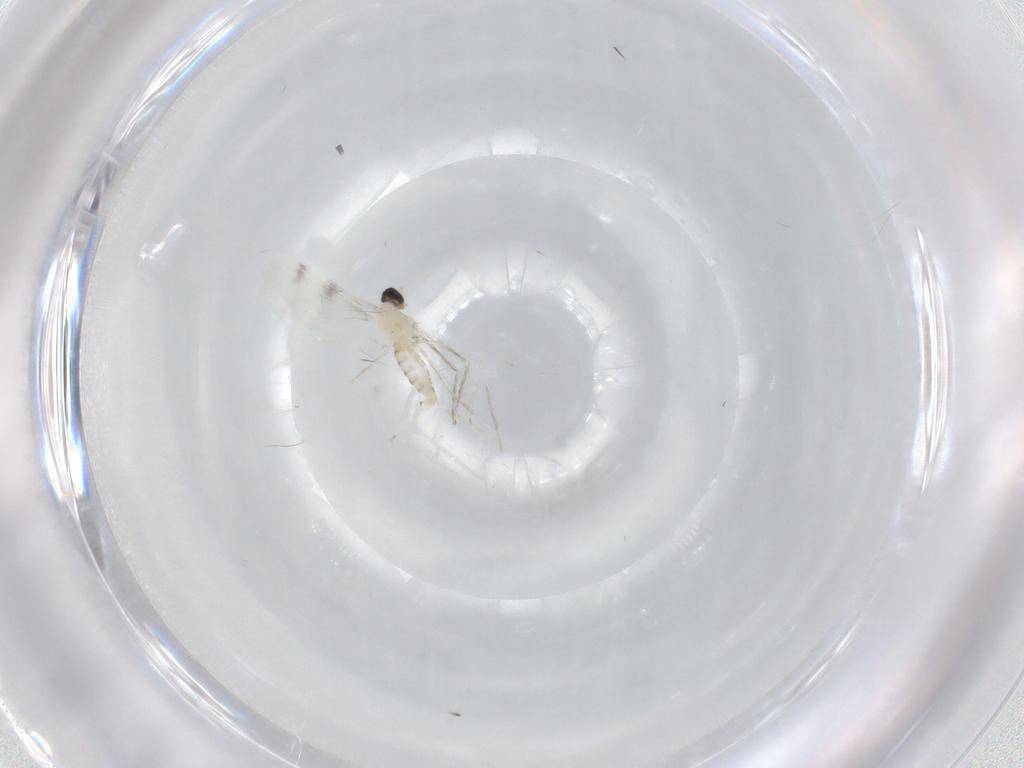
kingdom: Animalia
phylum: Arthropoda
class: Insecta
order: Diptera
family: Cecidomyiidae
